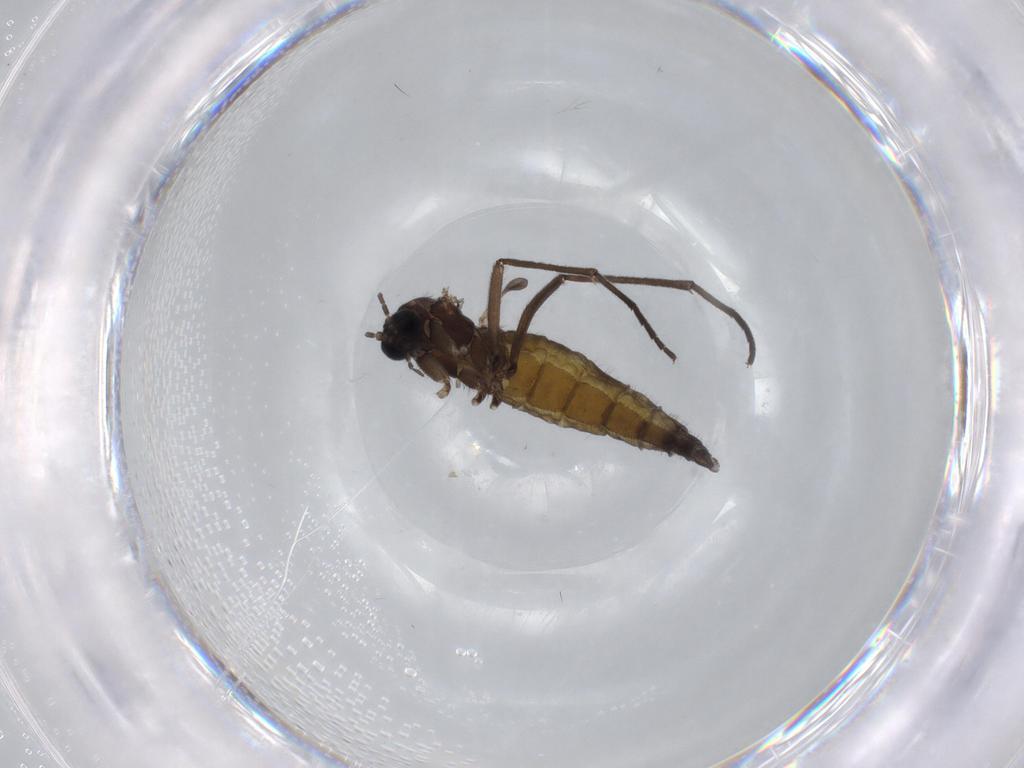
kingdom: Animalia
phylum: Arthropoda
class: Insecta
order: Diptera
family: Sciaridae
